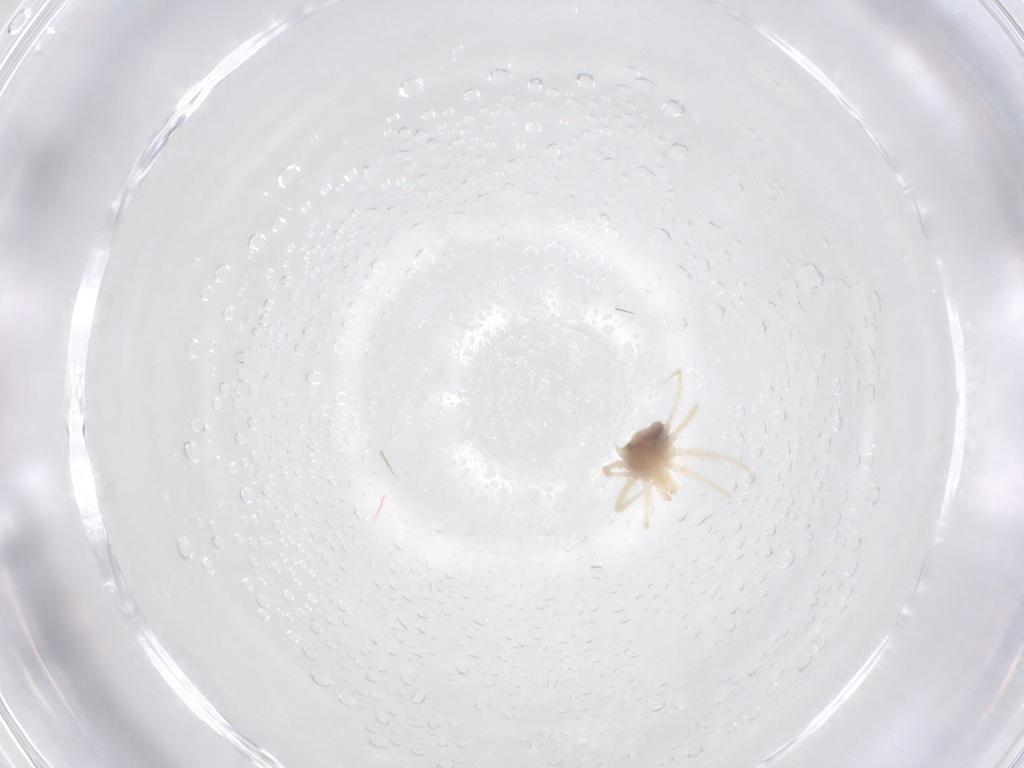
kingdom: Animalia
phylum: Arthropoda
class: Arachnida
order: Trombidiformes
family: Anystidae
